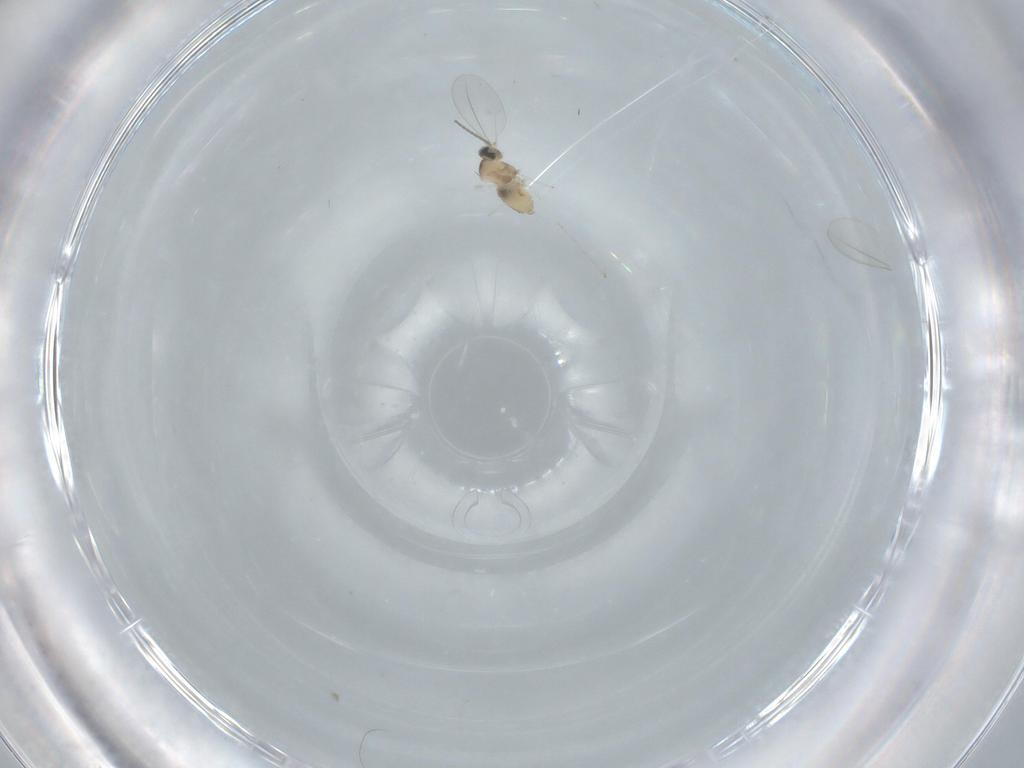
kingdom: Animalia
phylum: Arthropoda
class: Insecta
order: Diptera
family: Cecidomyiidae
